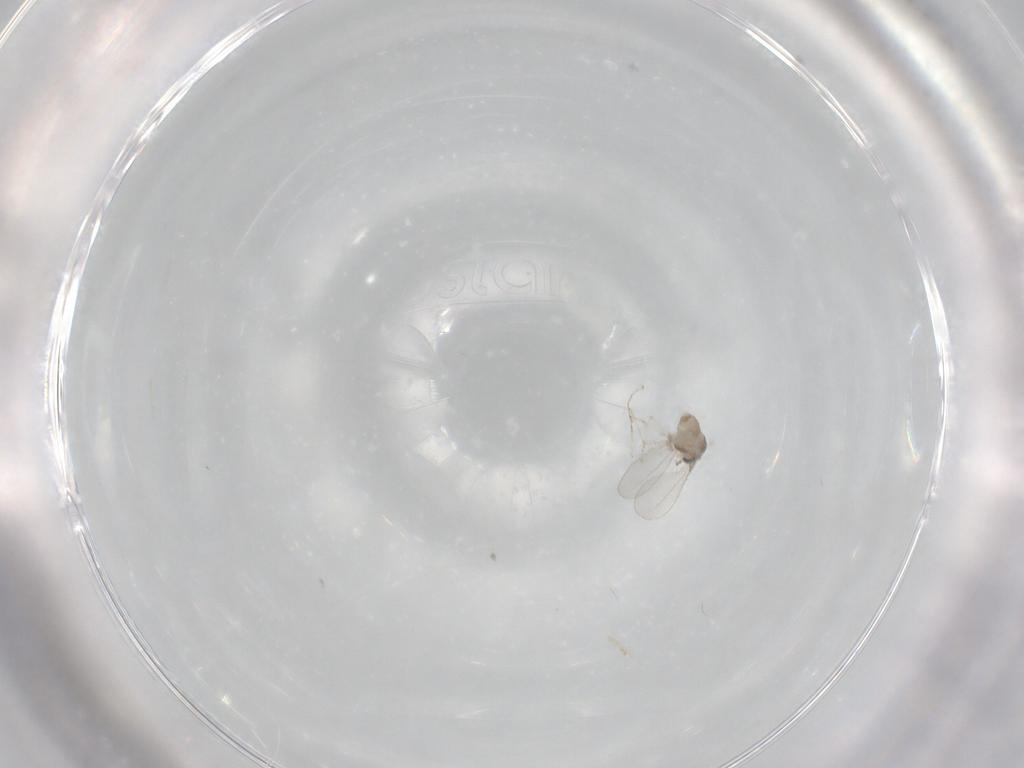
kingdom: Animalia
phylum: Arthropoda
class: Insecta
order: Diptera
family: Cecidomyiidae
